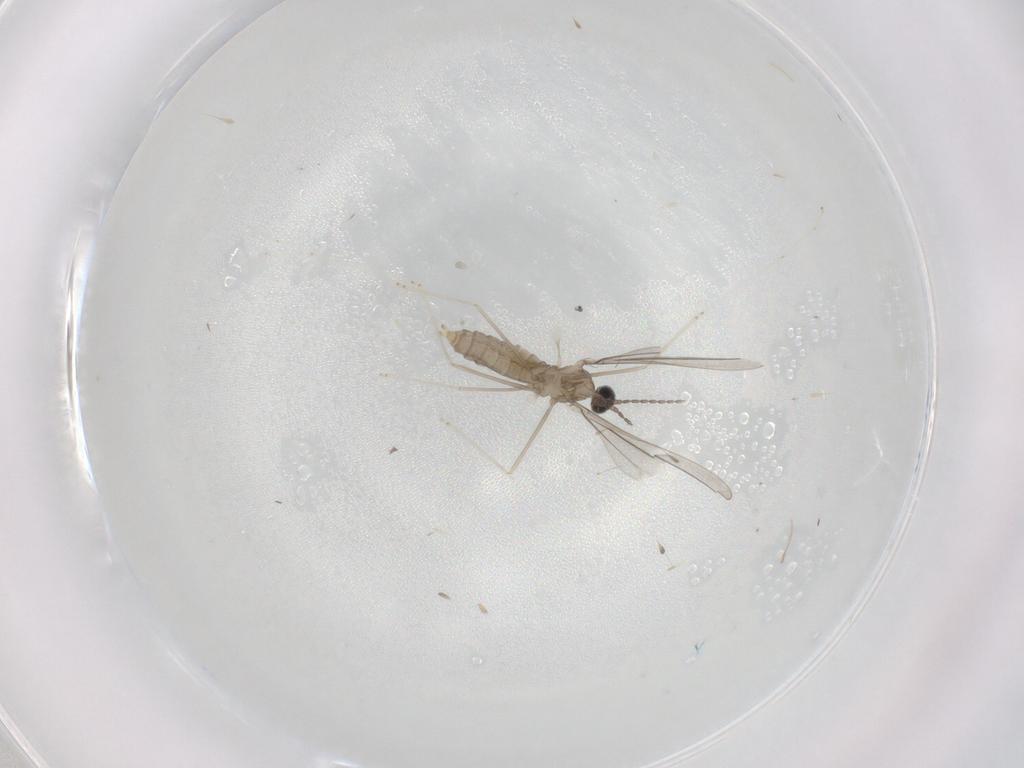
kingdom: Animalia
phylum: Arthropoda
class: Insecta
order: Diptera
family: Cecidomyiidae
